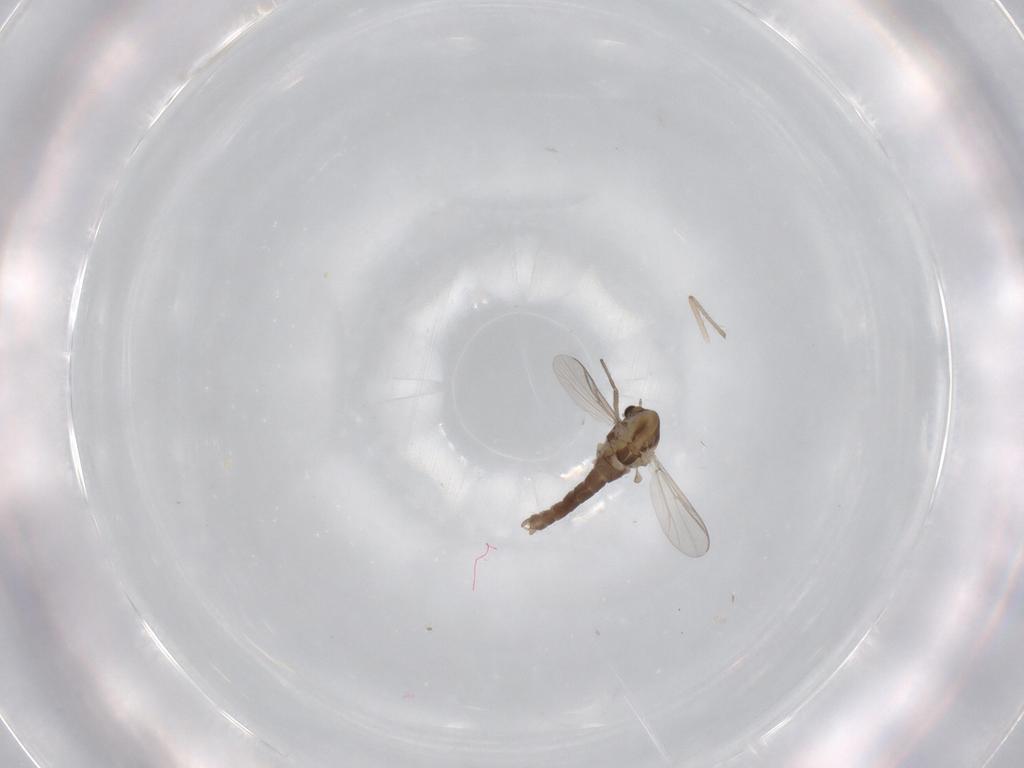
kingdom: Animalia
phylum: Arthropoda
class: Insecta
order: Diptera
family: Chironomidae
